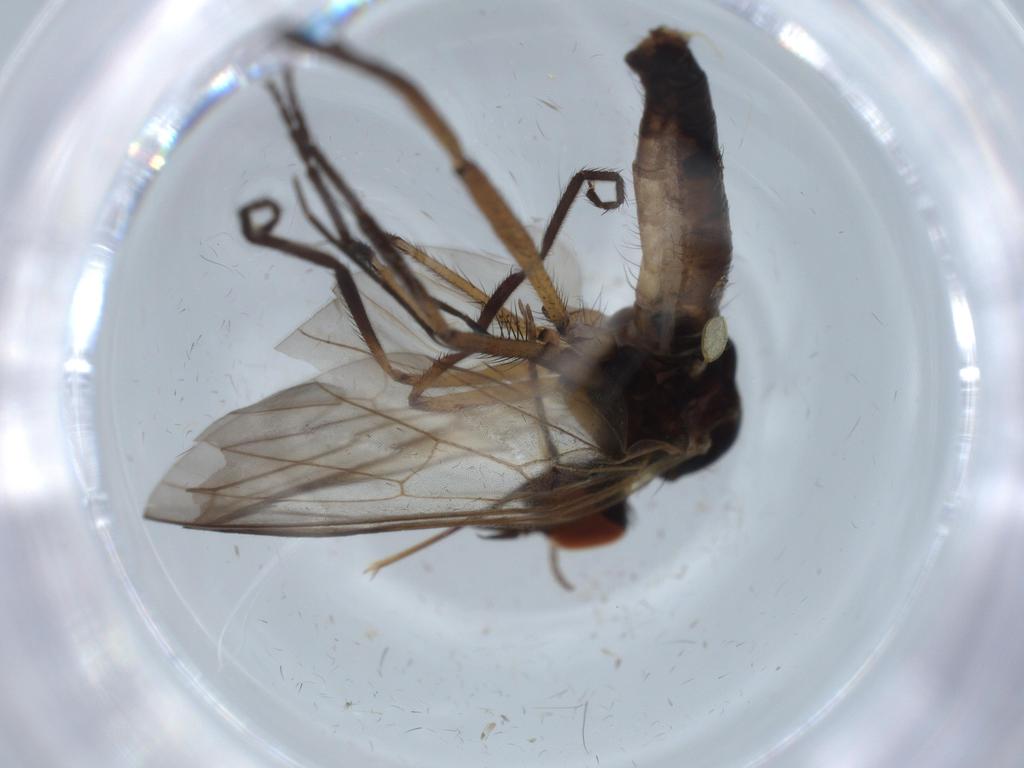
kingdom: Animalia
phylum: Arthropoda
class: Insecta
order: Diptera
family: Empididae
